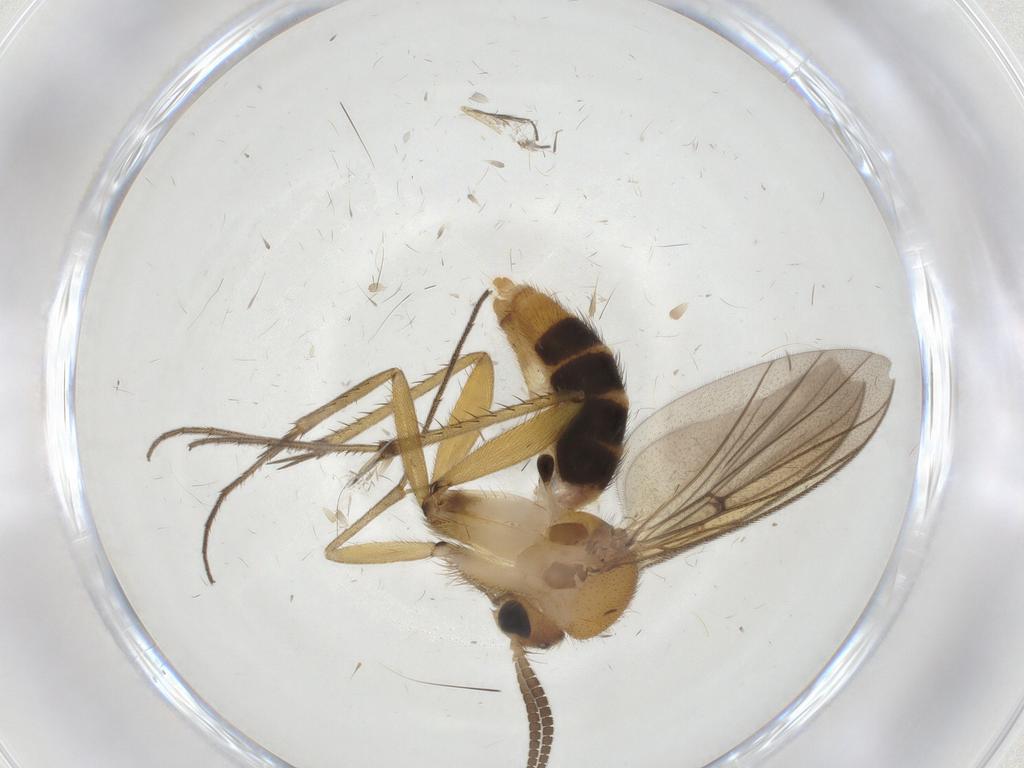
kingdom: Animalia
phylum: Arthropoda
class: Insecta
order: Diptera
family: Mycetophilidae
